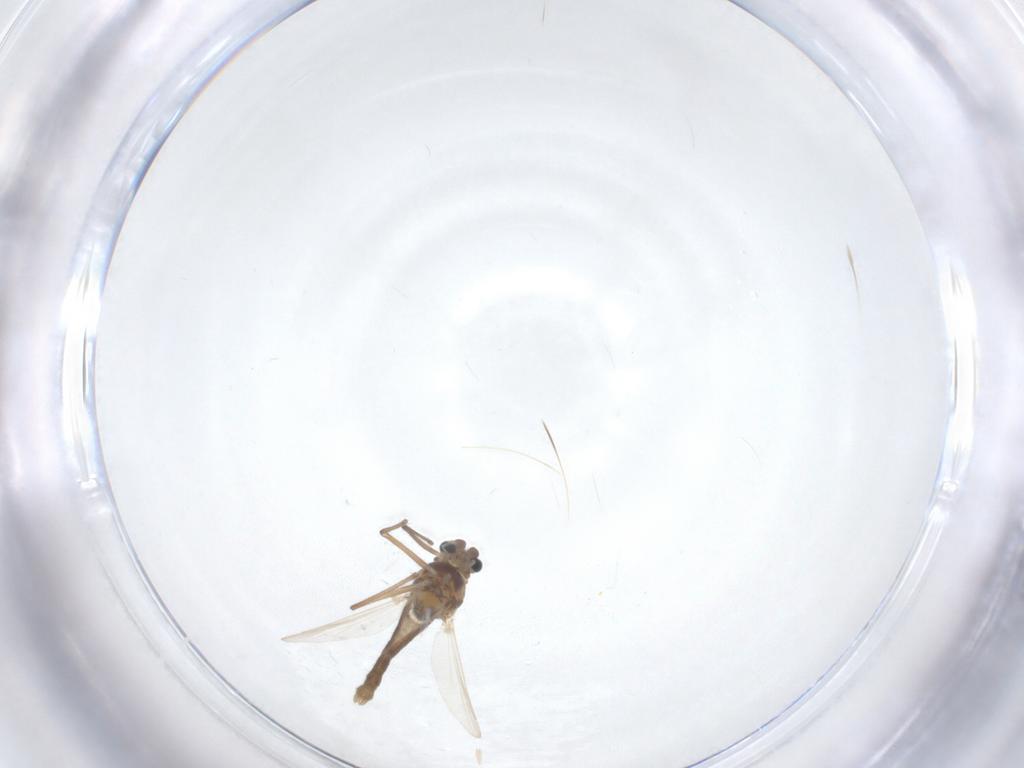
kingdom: Animalia
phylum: Arthropoda
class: Insecta
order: Diptera
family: Chironomidae
